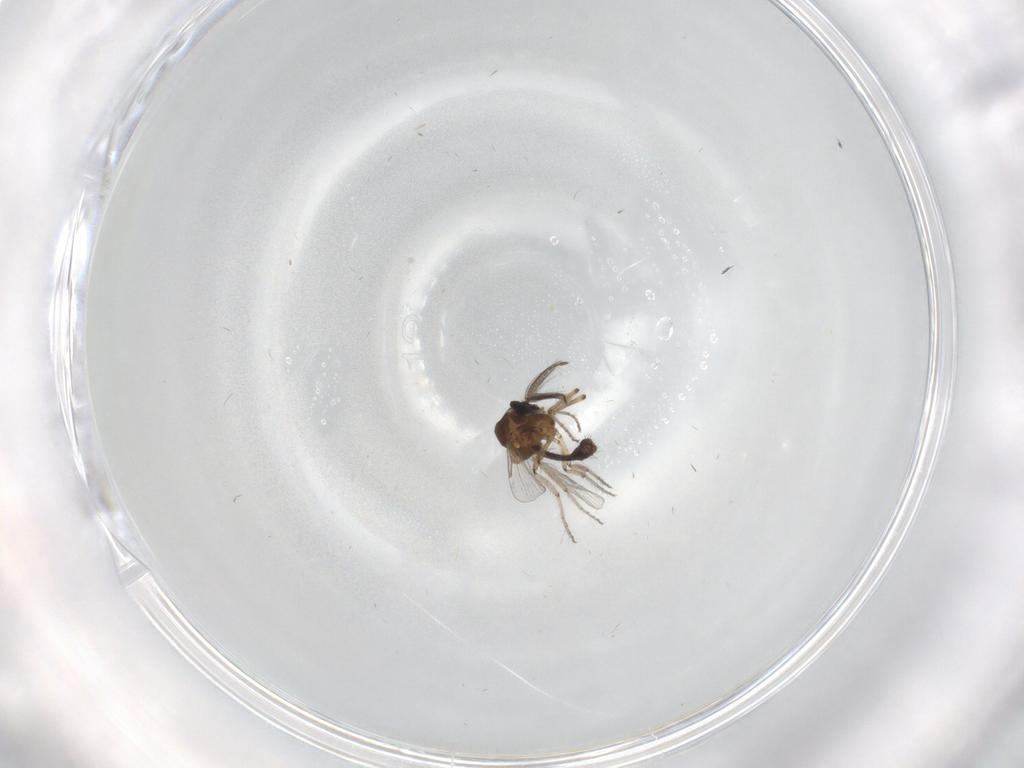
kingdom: Animalia
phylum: Arthropoda
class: Insecta
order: Diptera
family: Ceratopogonidae
